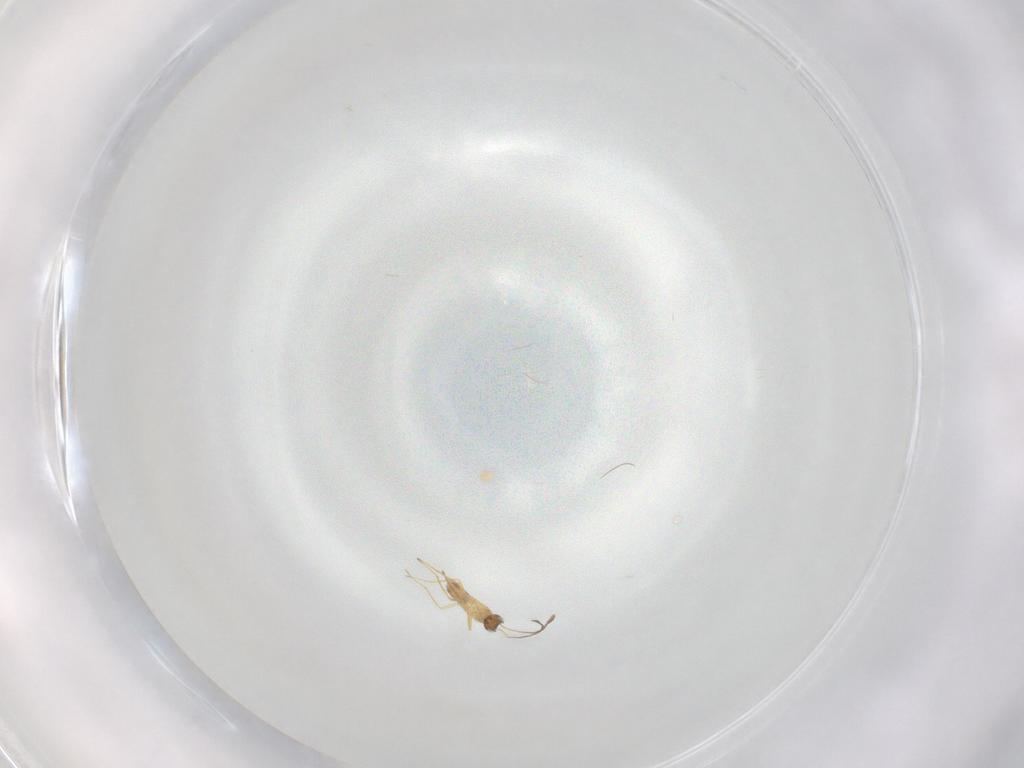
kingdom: Animalia
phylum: Arthropoda
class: Insecta
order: Hymenoptera
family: Mymaridae
